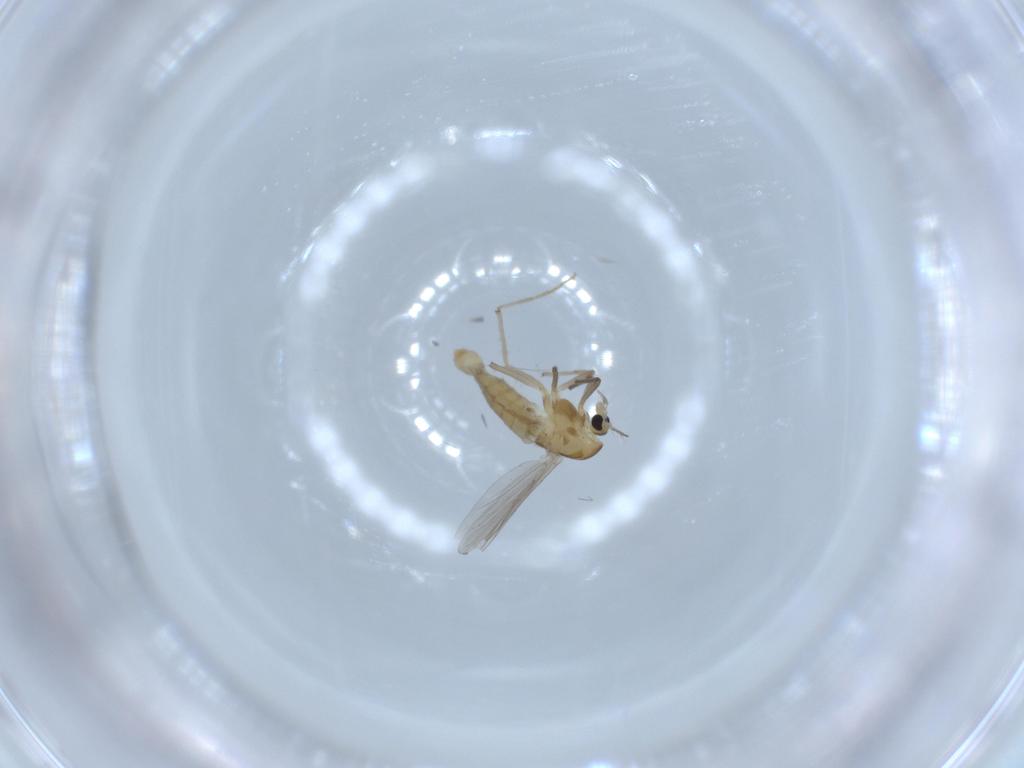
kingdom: Animalia
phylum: Arthropoda
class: Insecta
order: Diptera
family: Chironomidae
